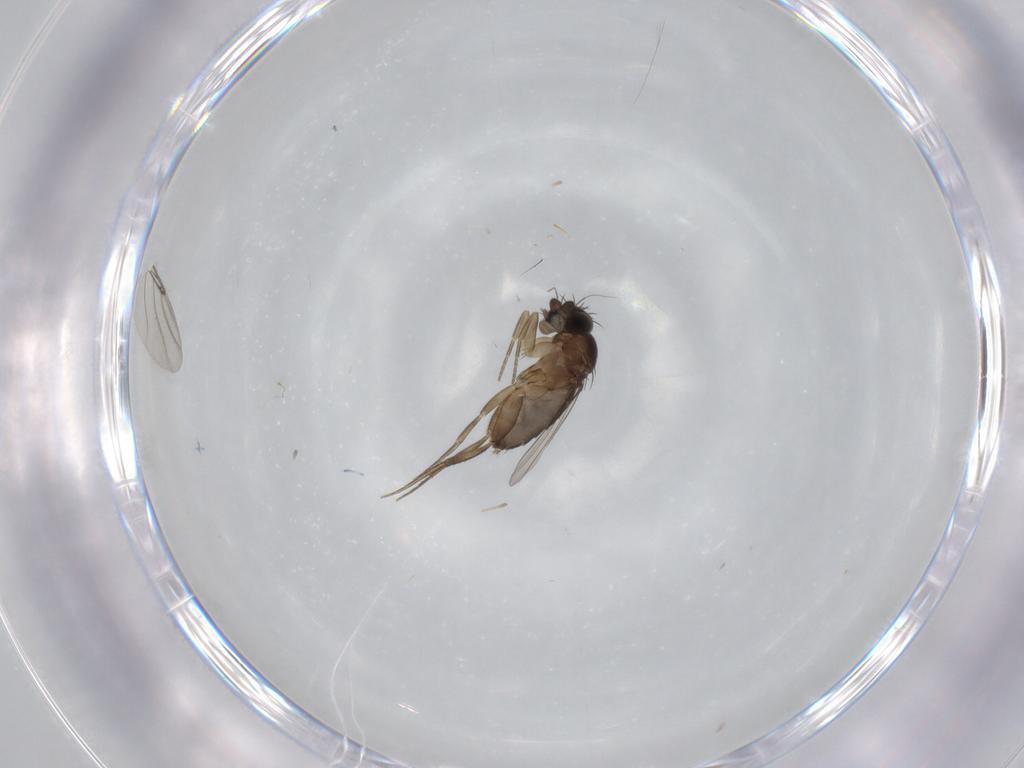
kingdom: Animalia
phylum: Arthropoda
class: Insecta
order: Diptera
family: Phoridae
